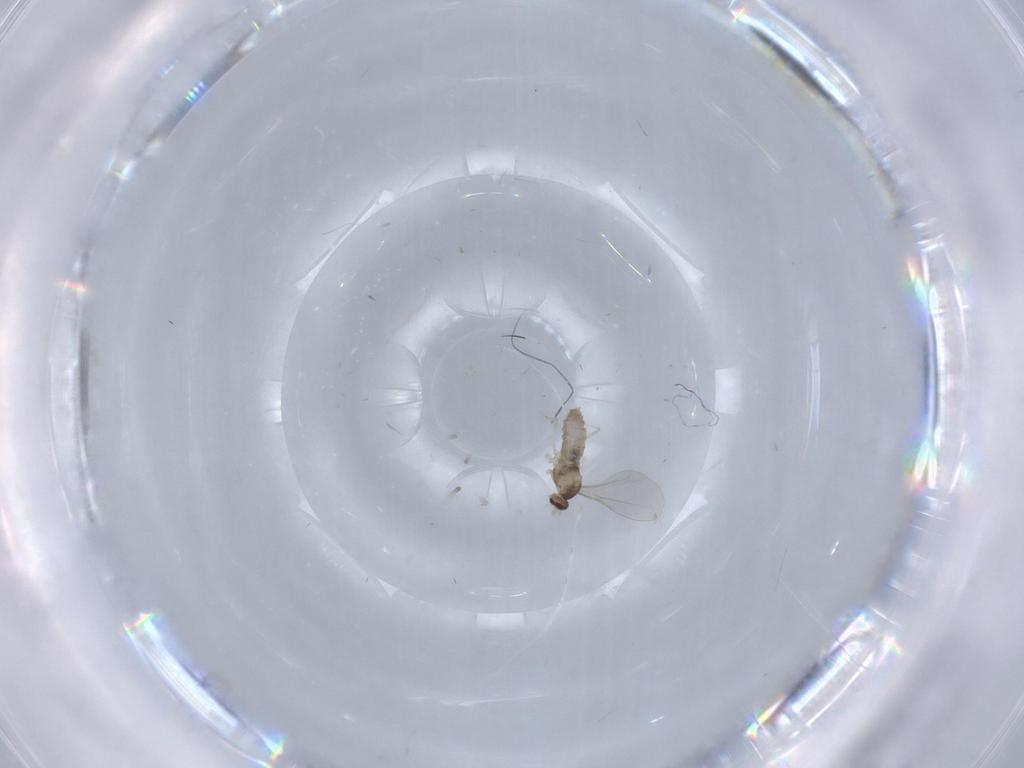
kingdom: Animalia
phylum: Arthropoda
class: Insecta
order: Diptera
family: Cecidomyiidae
